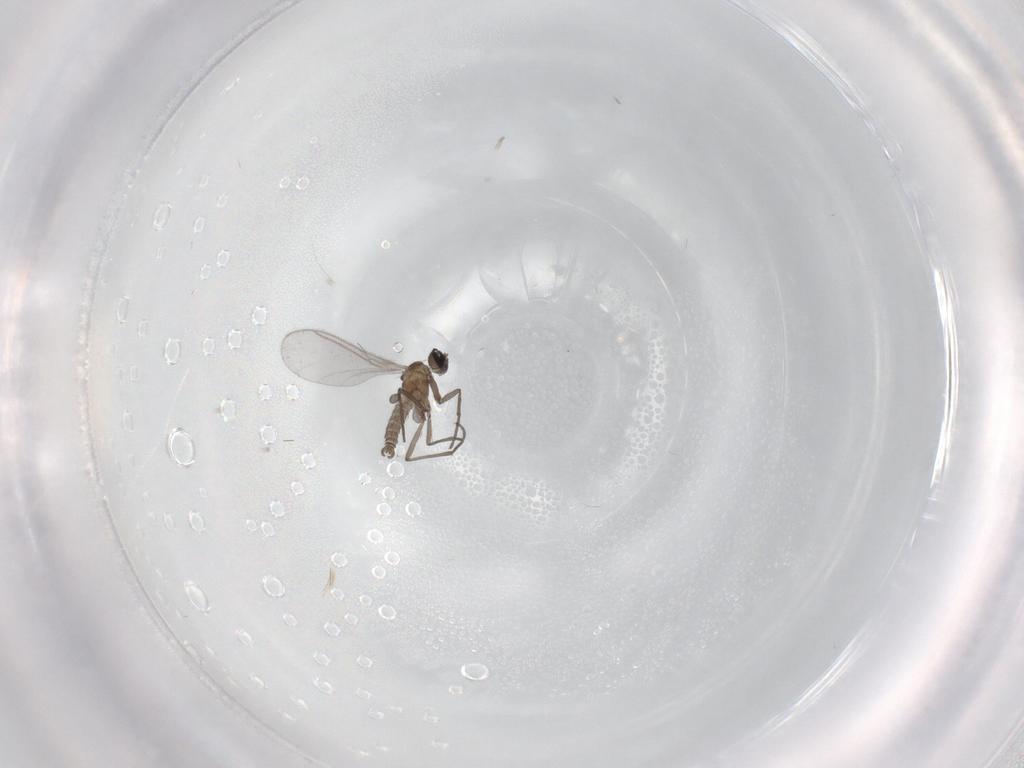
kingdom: Animalia
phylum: Arthropoda
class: Insecta
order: Diptera
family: Sciaridae
